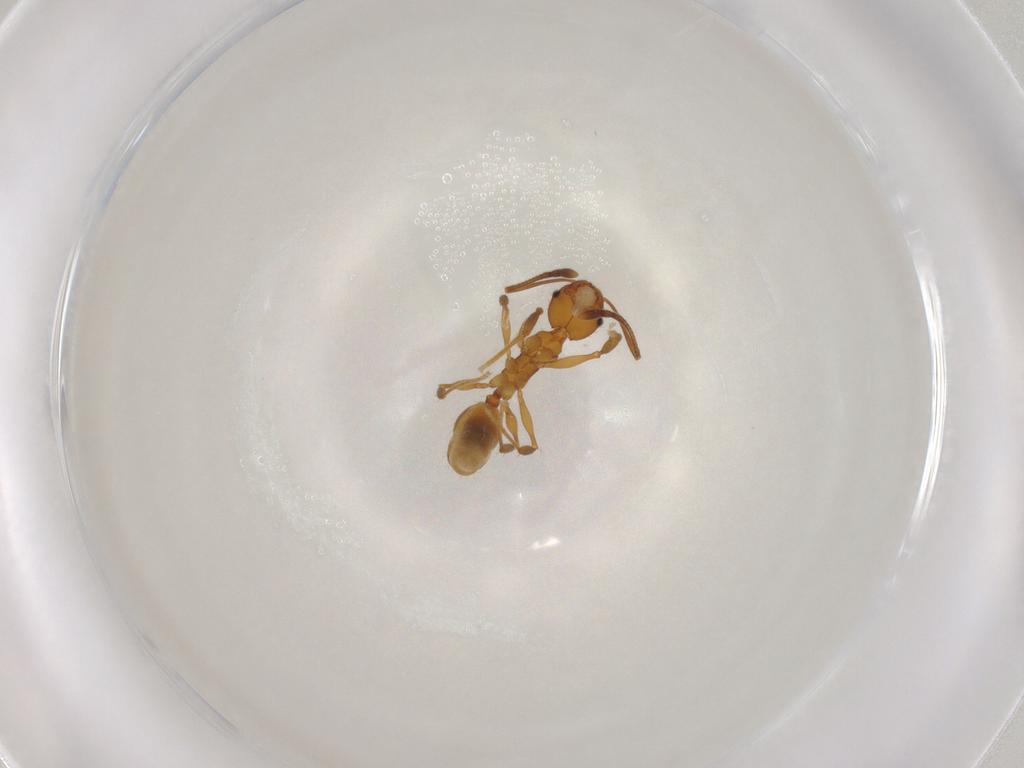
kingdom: Animalia
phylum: Arthropoda
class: Insecta
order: Hymenoptera
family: Formicidae
